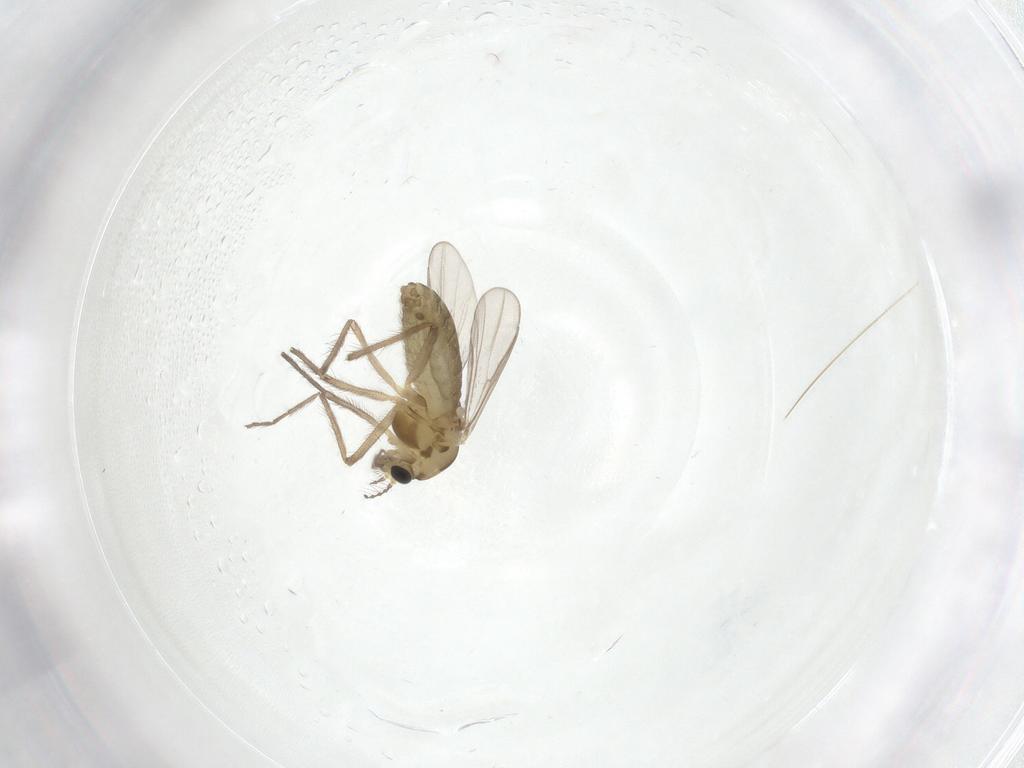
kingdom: Animalia
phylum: Arthropoda
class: Insecta
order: Diptera
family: Chironomidae
